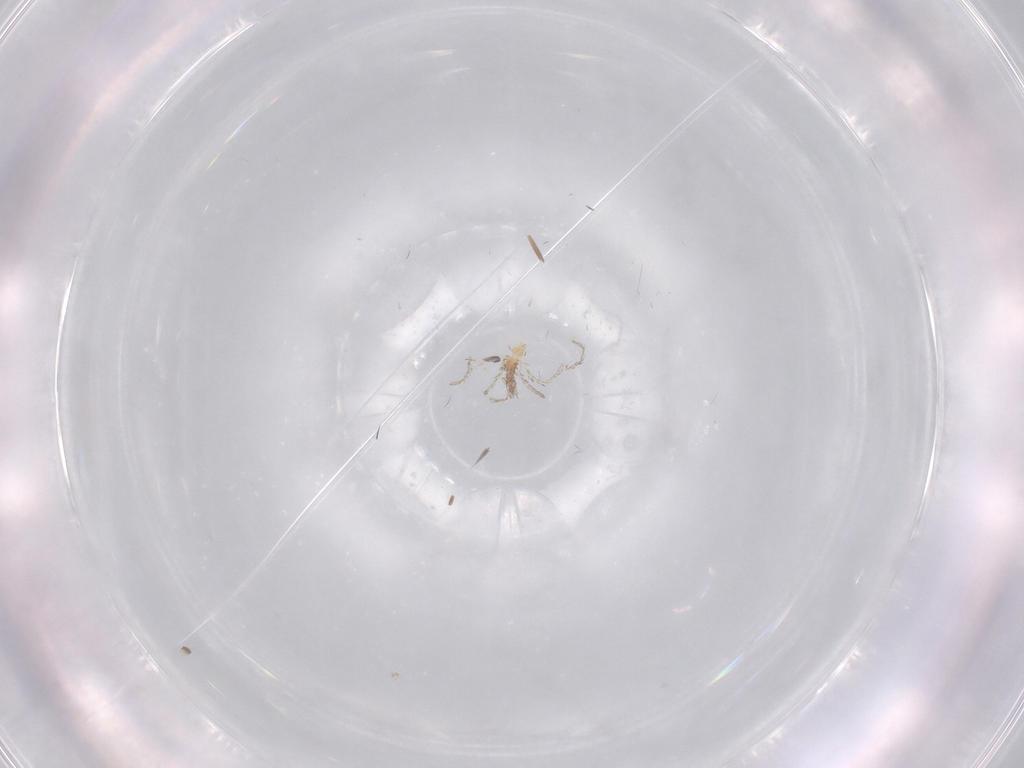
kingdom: Animalia
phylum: Arthropoda
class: Arachnida
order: Trombidiformes
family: Erythraeidae
